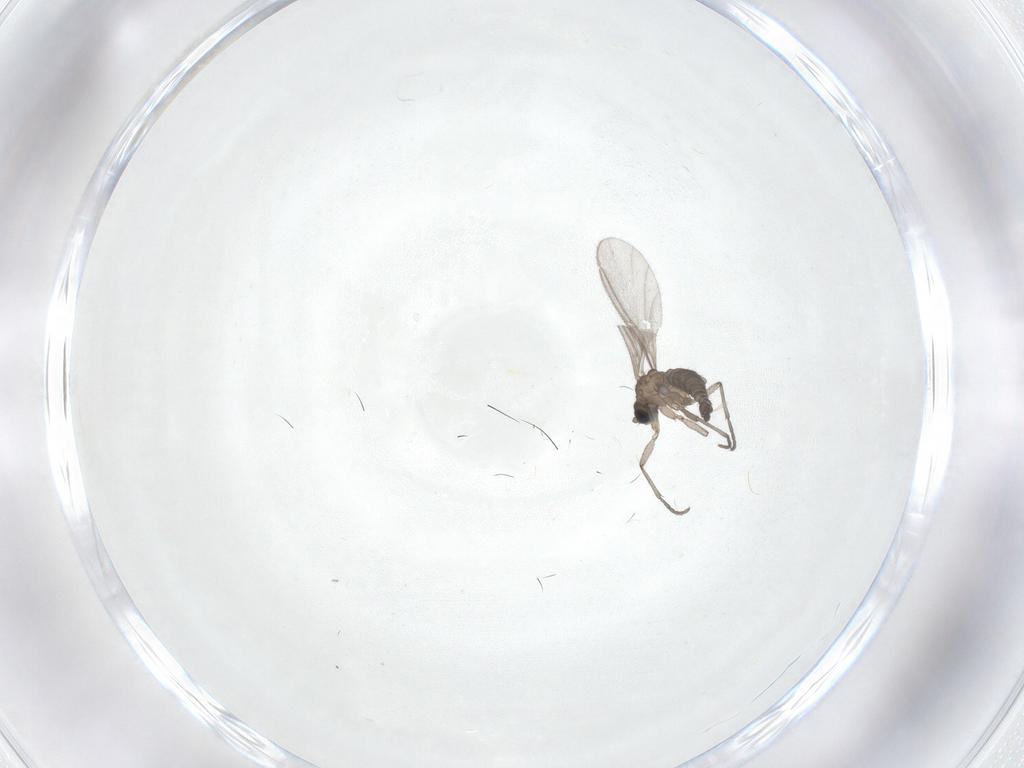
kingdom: Animalia
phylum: Arthropoda
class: Insecta
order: Diptera
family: Sciaridae
